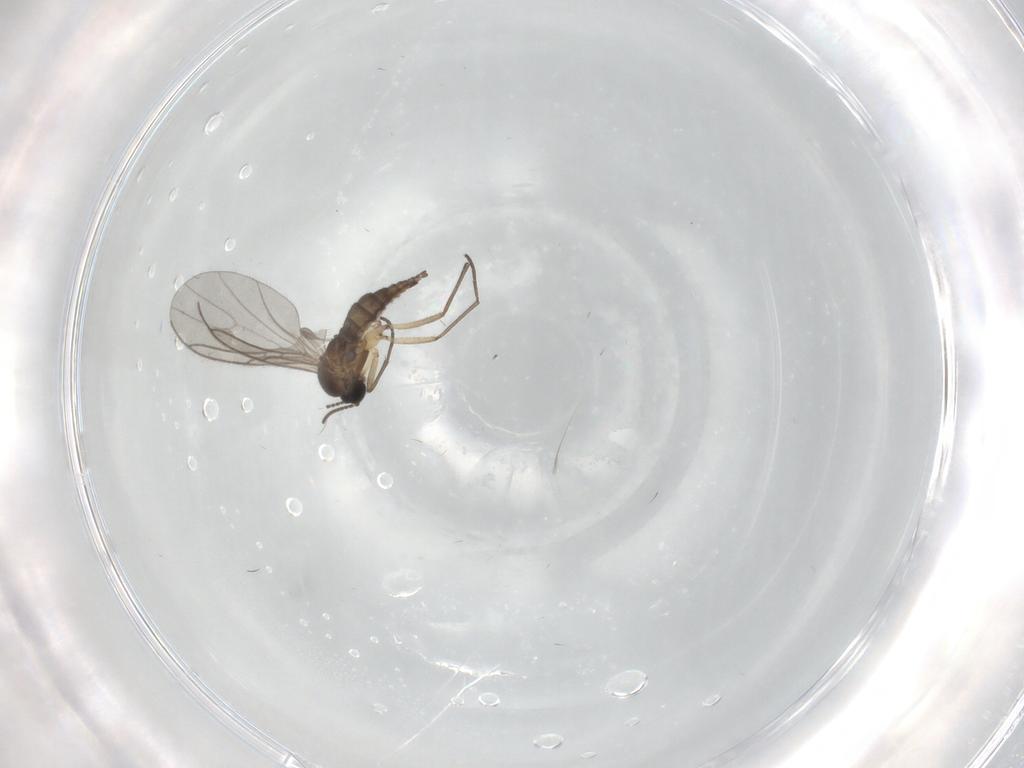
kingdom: Animalia
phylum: Arthropoda
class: Insecta
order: Diptera
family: Phoridae
